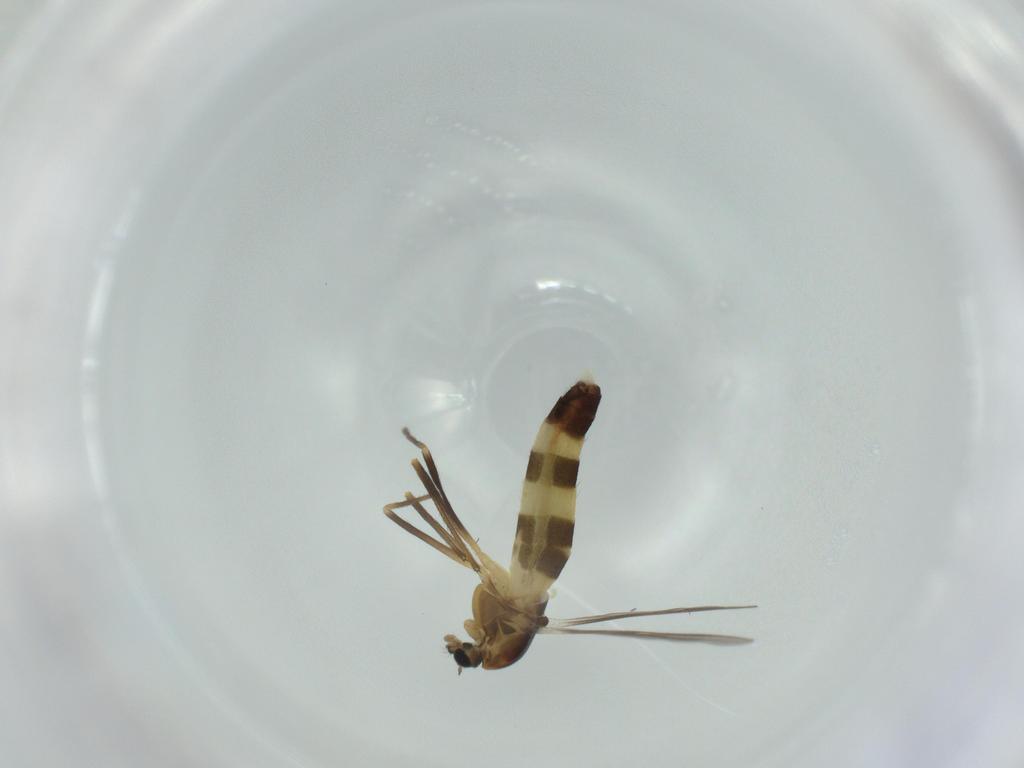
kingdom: Animalia
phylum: Arthropoda
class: Insecta
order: Diptera
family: Chironomidae
